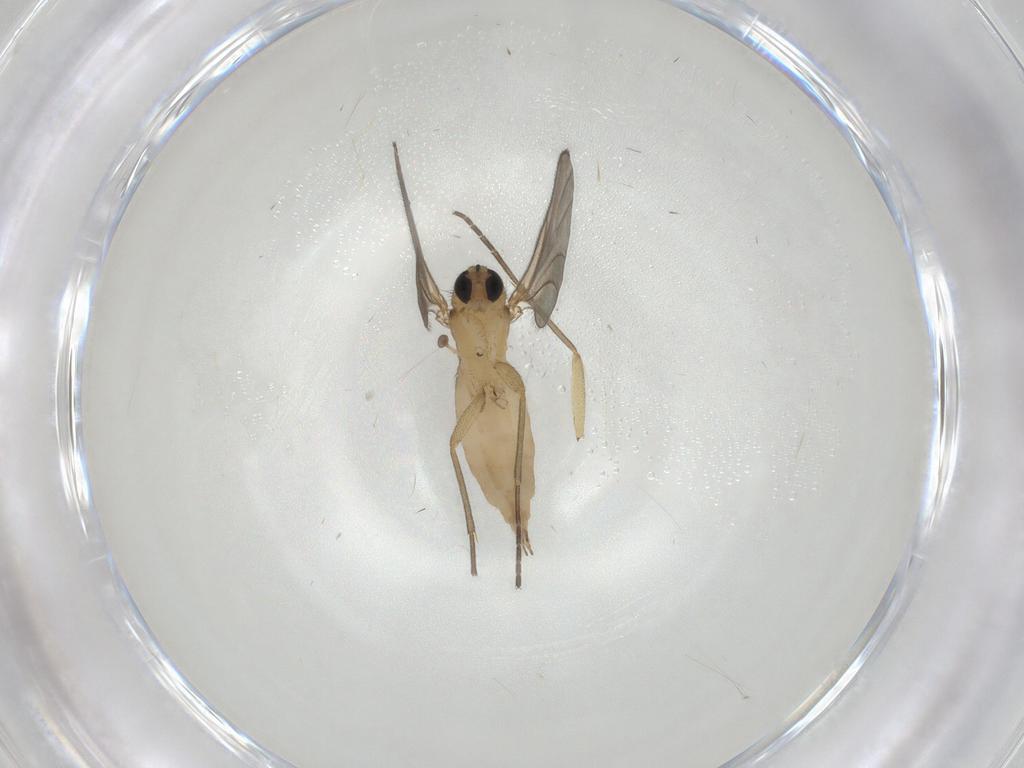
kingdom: Animalia
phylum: Arthropoda
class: Insecta
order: Diptera
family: Sciaridae
